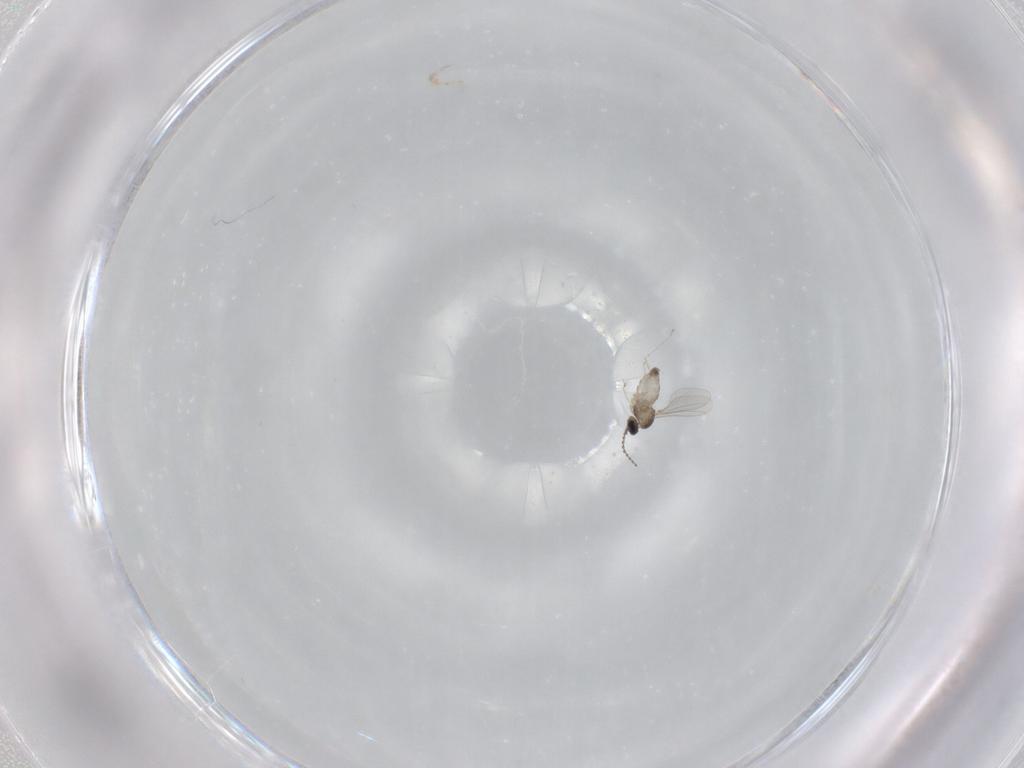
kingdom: Animalia
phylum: Arthropoda
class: Insecta
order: Diptera
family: Cecidomyiidae
